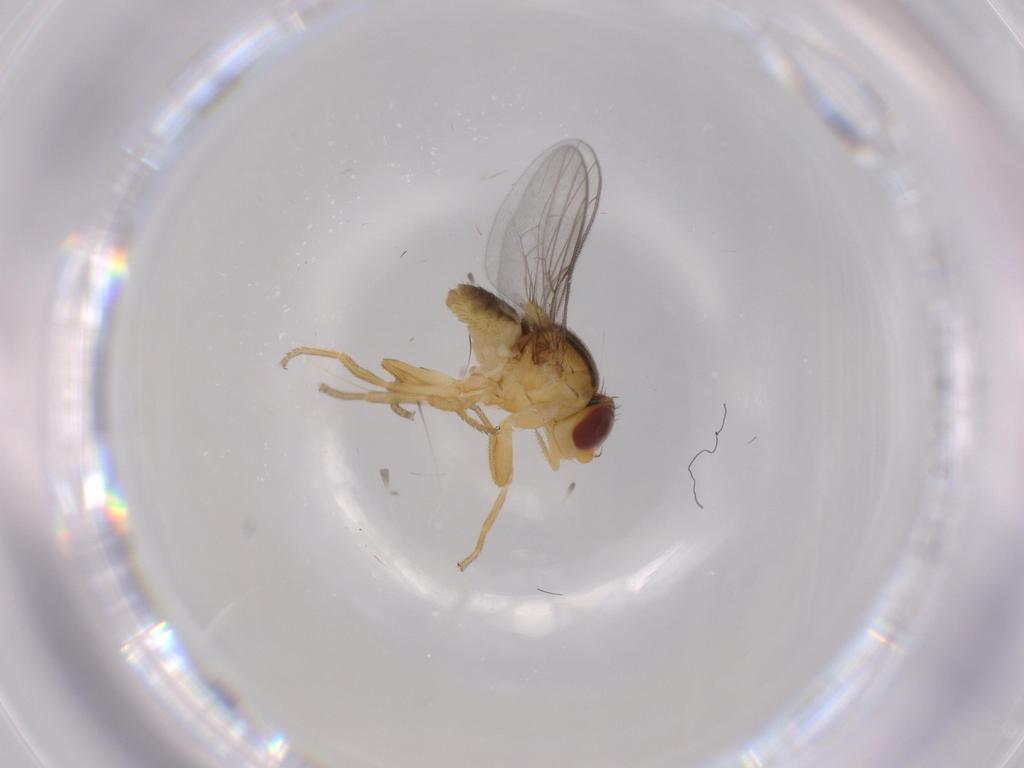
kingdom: Animalia
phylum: Arthropoda
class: Insecta
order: Diptera
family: Chloropidae
